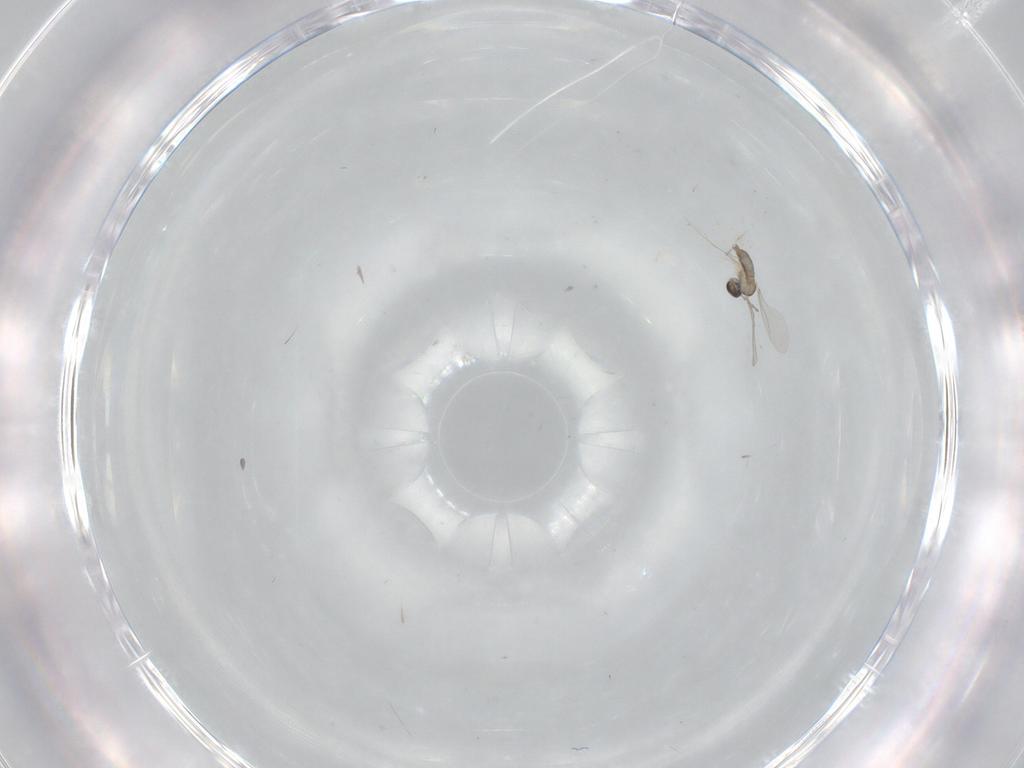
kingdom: Animalia
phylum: Arthropoda
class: Insecta
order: Diptera
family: Cecidomyiidae
